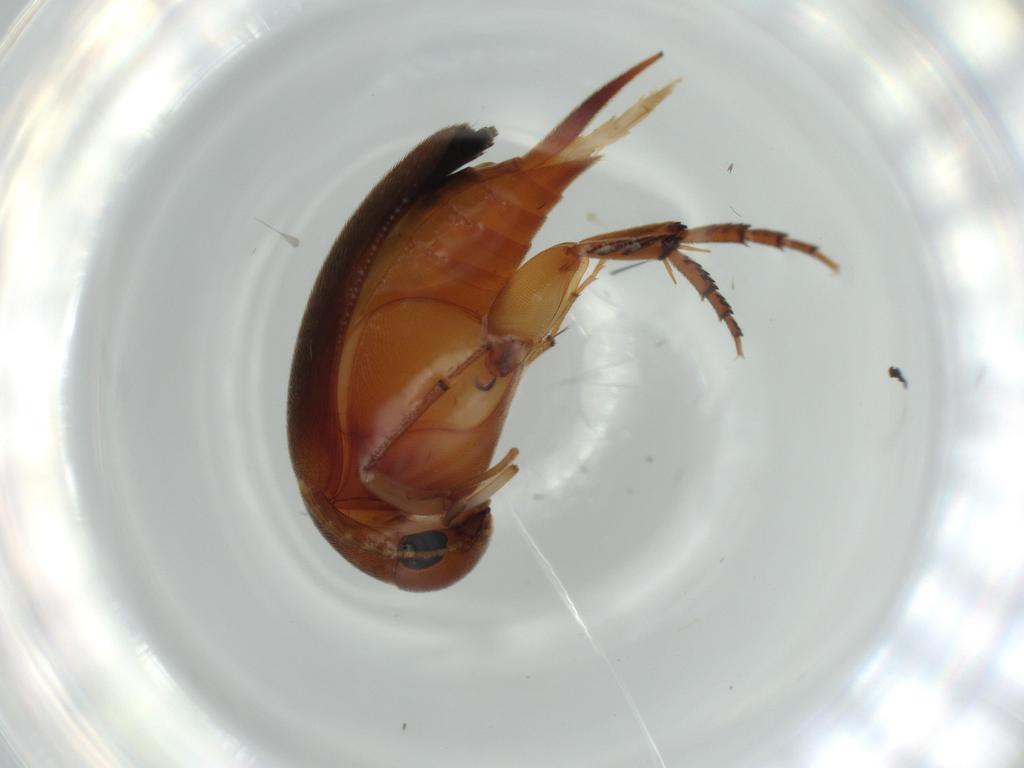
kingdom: Animalia
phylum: Arthropoda
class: Insecta
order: Coleoptera
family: Mordellidae
